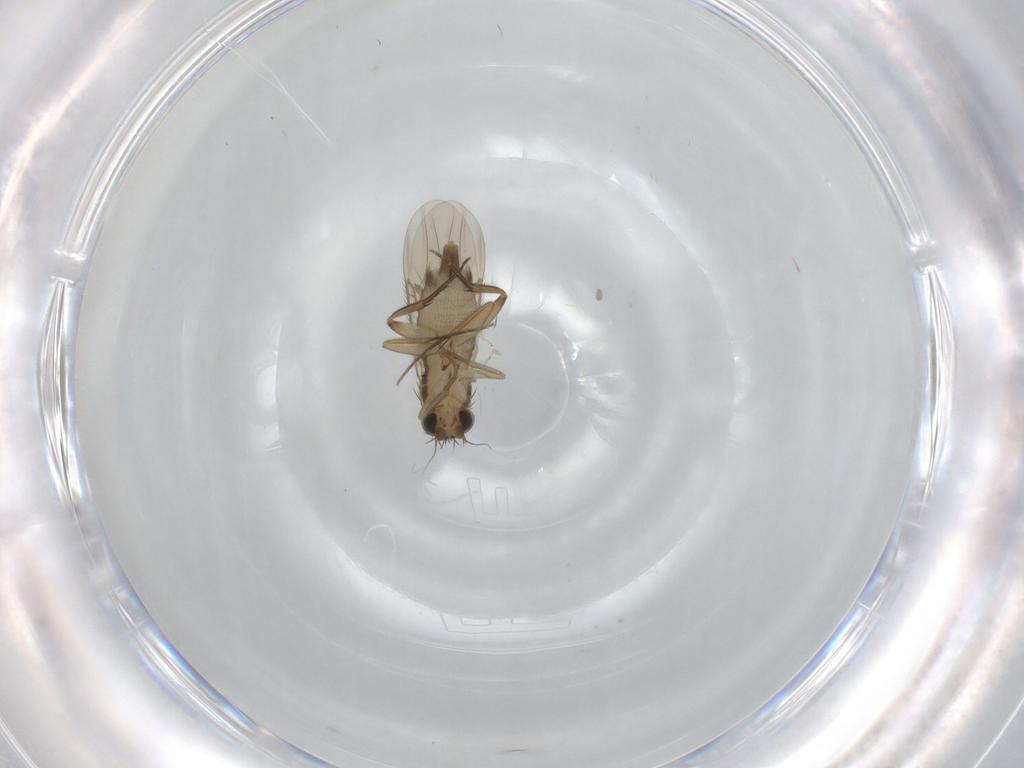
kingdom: Animalia
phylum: Arthropoda
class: Insecta
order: Diptera
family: Phoridae
